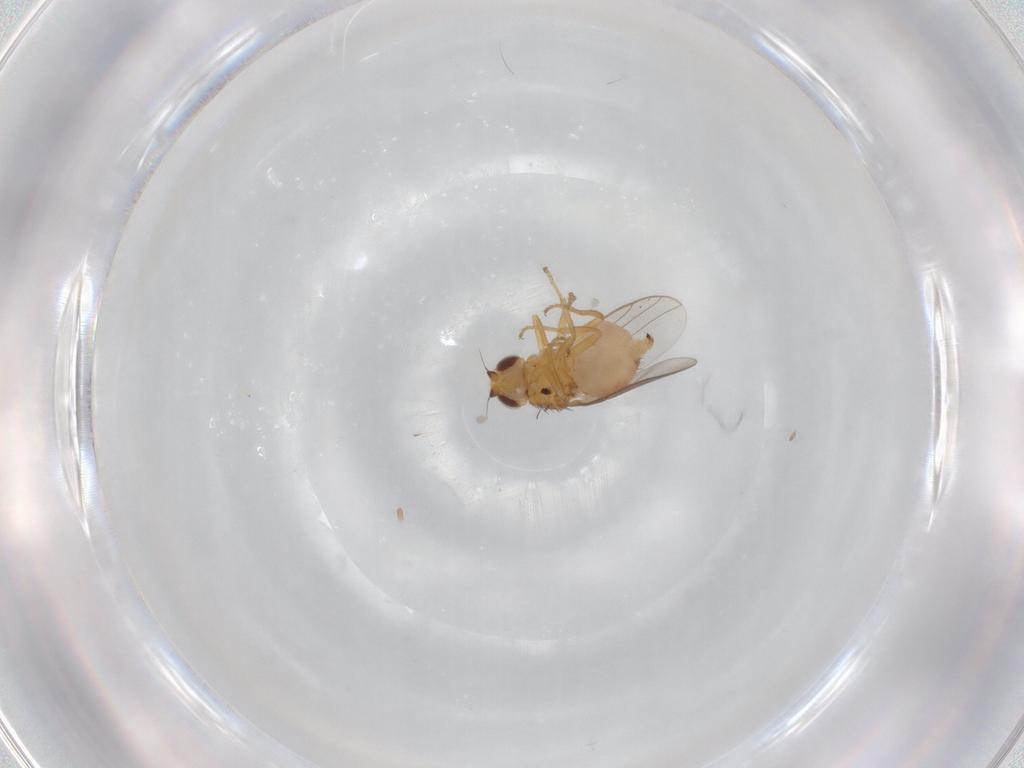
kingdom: Animalia
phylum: Arthropoda
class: Insecta
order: Diptera
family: Chloropidae
